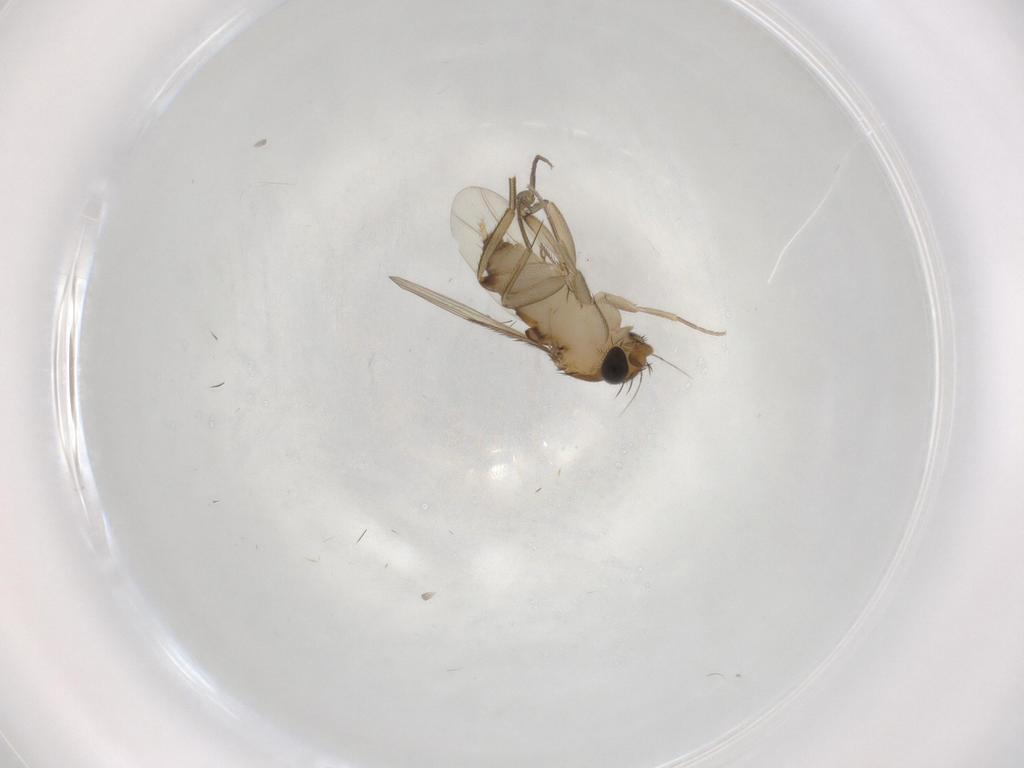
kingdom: Animalia
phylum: Arthropoda
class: Insecta
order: Diptera
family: Phoridae
